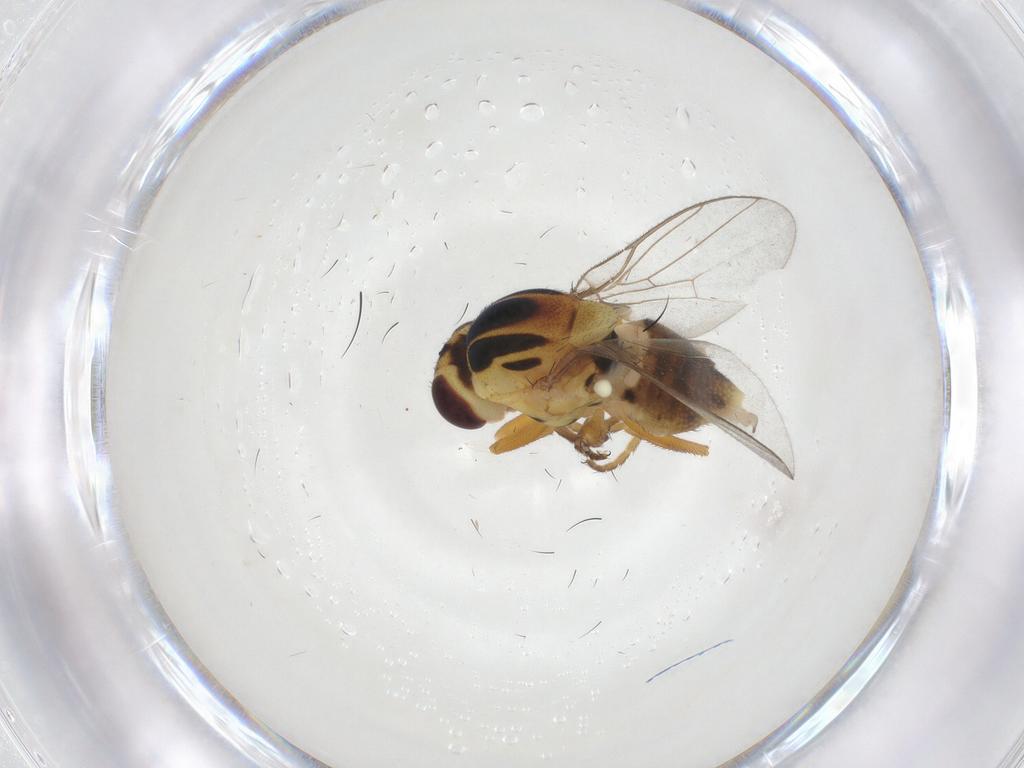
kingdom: Animalia
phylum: Arthropoda
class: Insecta
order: Diptera
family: Chloropidae
